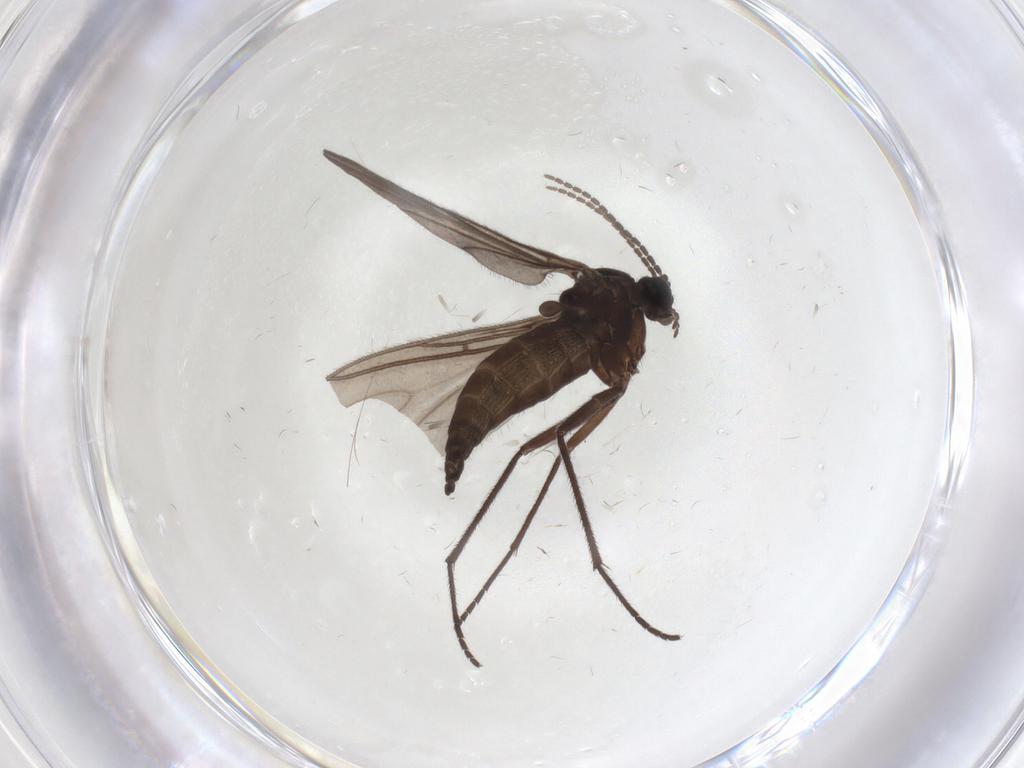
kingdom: Animalia
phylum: Arthropoda
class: Insecta
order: Diptera
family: Sciaridae
